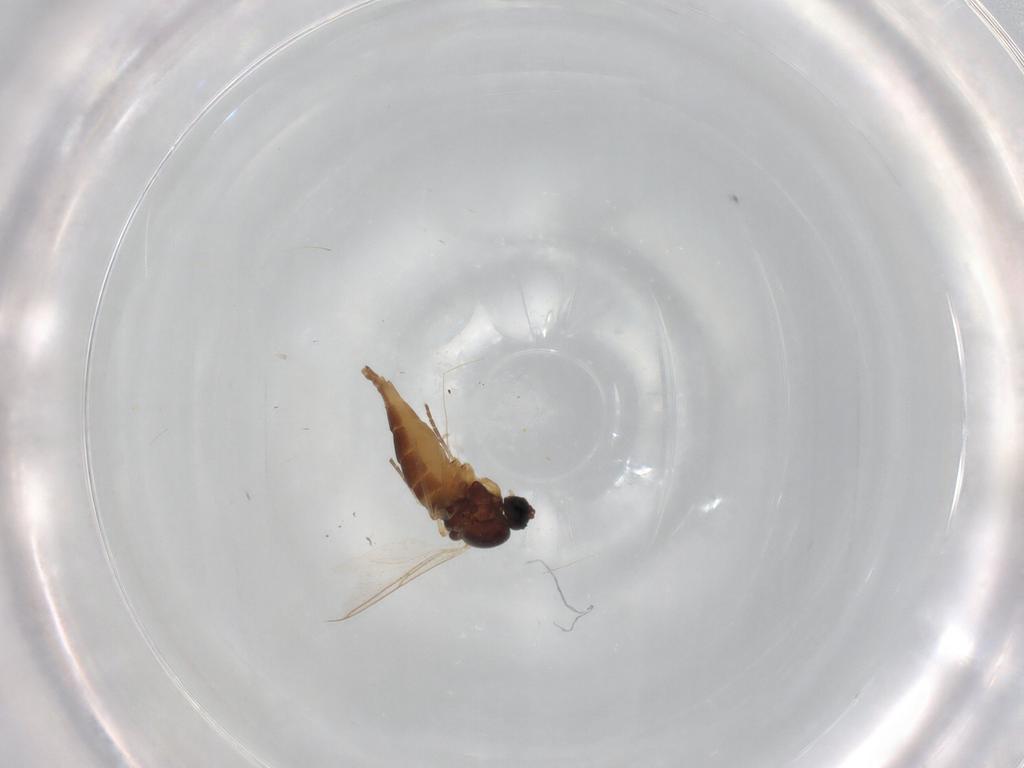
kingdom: Animalia
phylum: Arthropoda
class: Insecta
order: Diptera
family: Sciaridae
